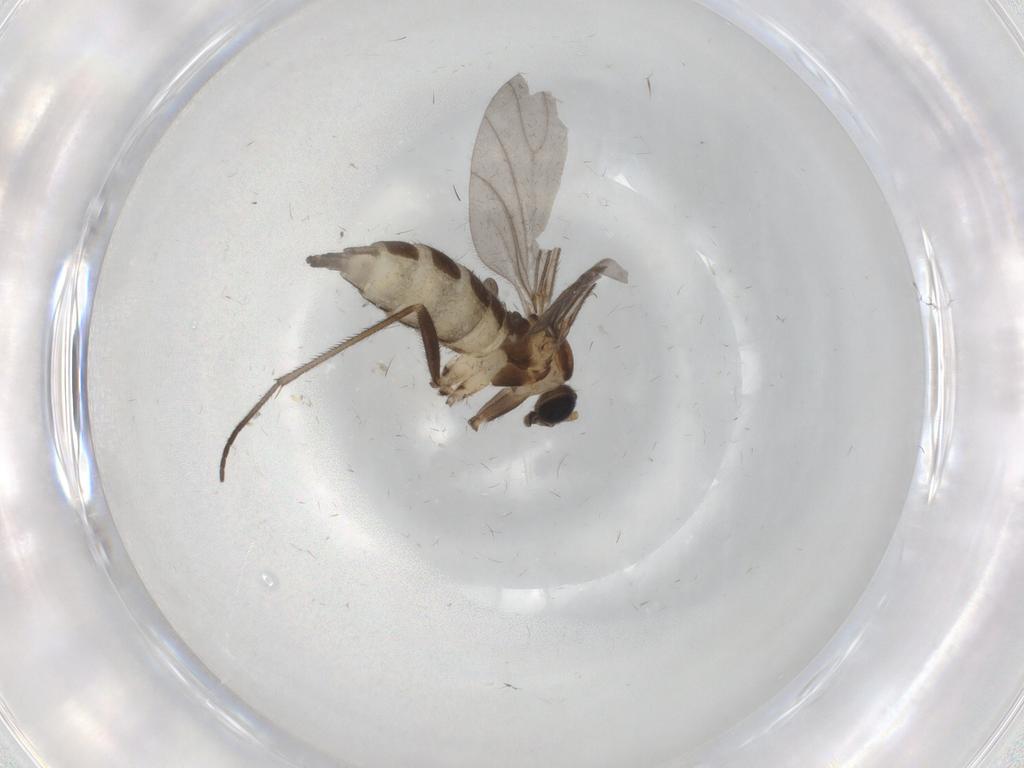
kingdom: Animalia
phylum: Arthropoda
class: Insecta
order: Diptera
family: Sciaridae
